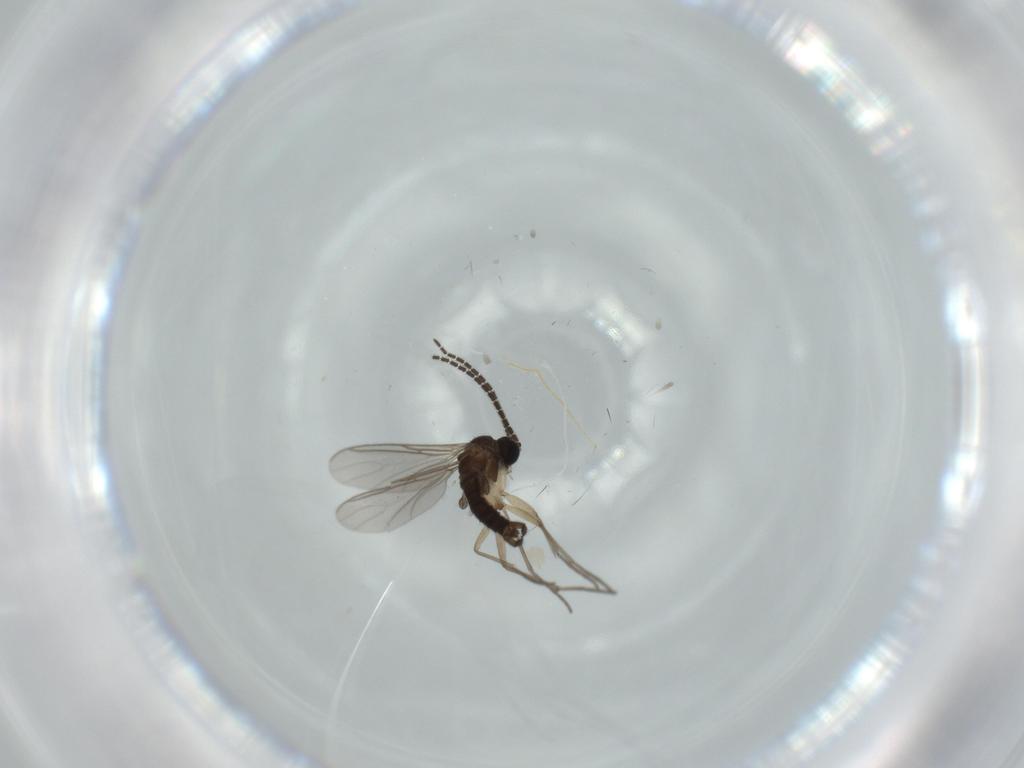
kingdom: Animalia
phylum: Arthropoda
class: Insecta
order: Diptera
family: Sciaridae
